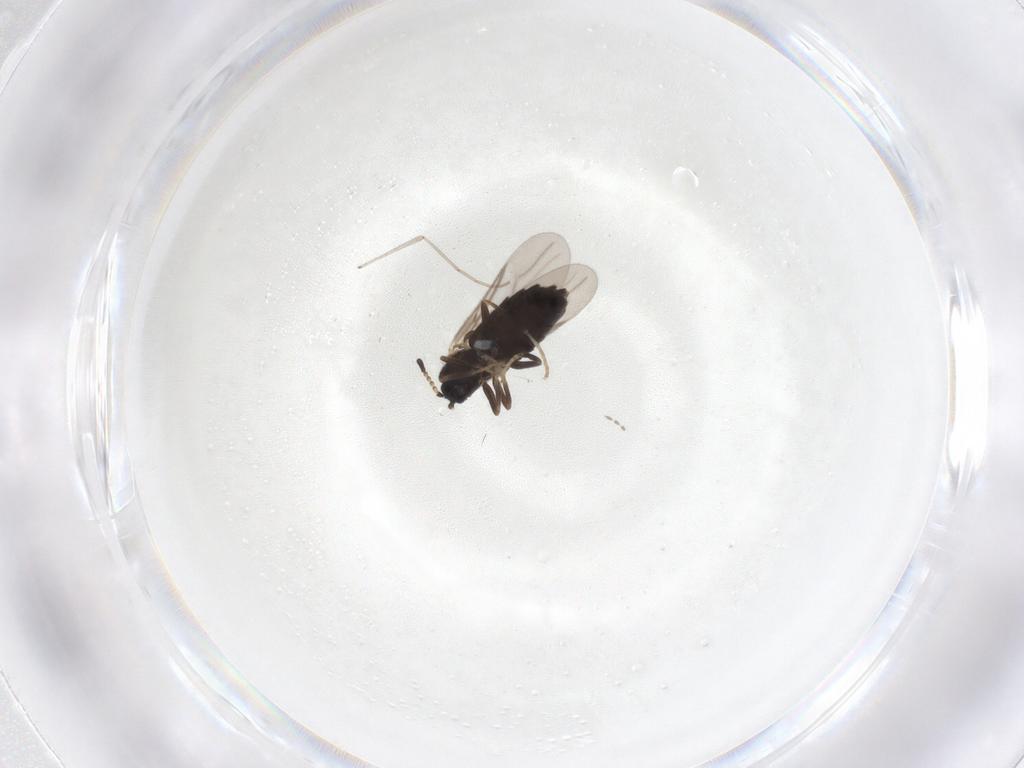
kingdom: Animalia
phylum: Arthropoda
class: Insecta
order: Diptera
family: Scatopsidae
